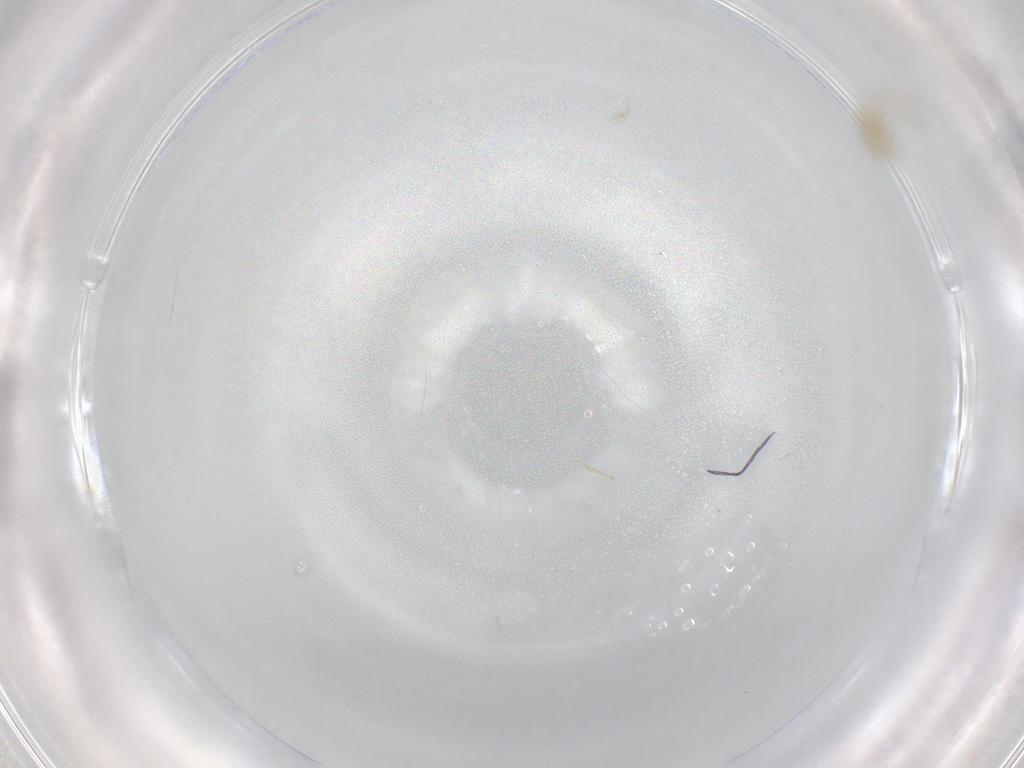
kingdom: Animalia
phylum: Arthropoda
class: Insecta
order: Hymenoptera
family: Aphelinidae
